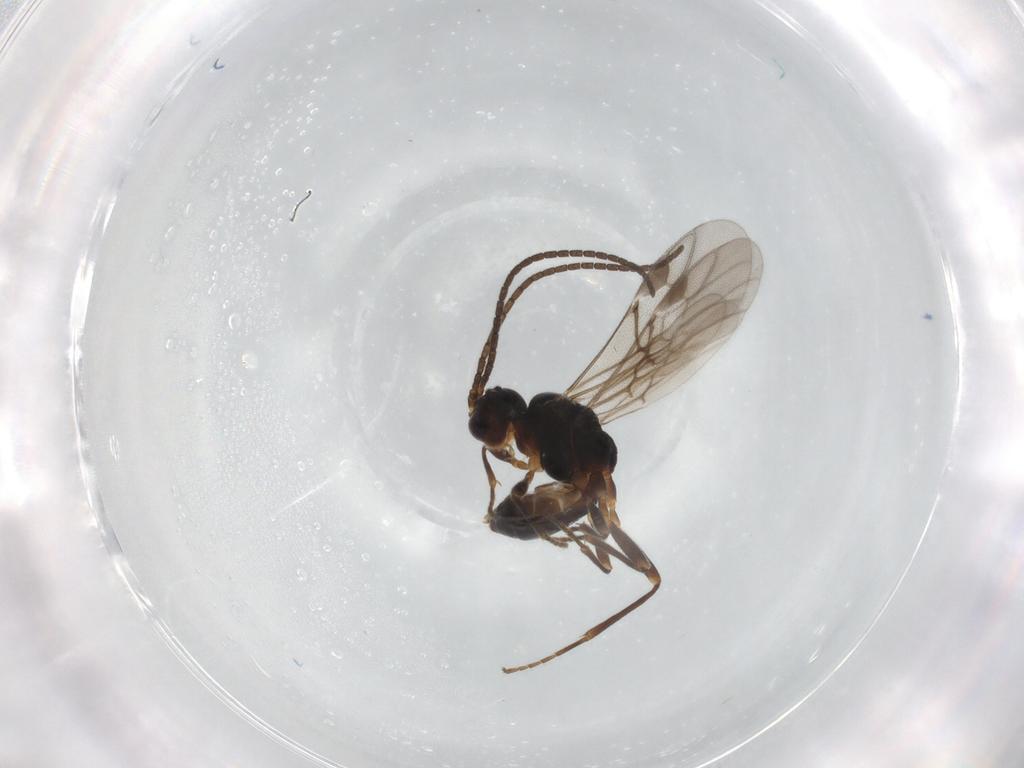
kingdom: Animalia
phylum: Arthropoda
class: Insecta
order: Hymenoptera
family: Braconidae
